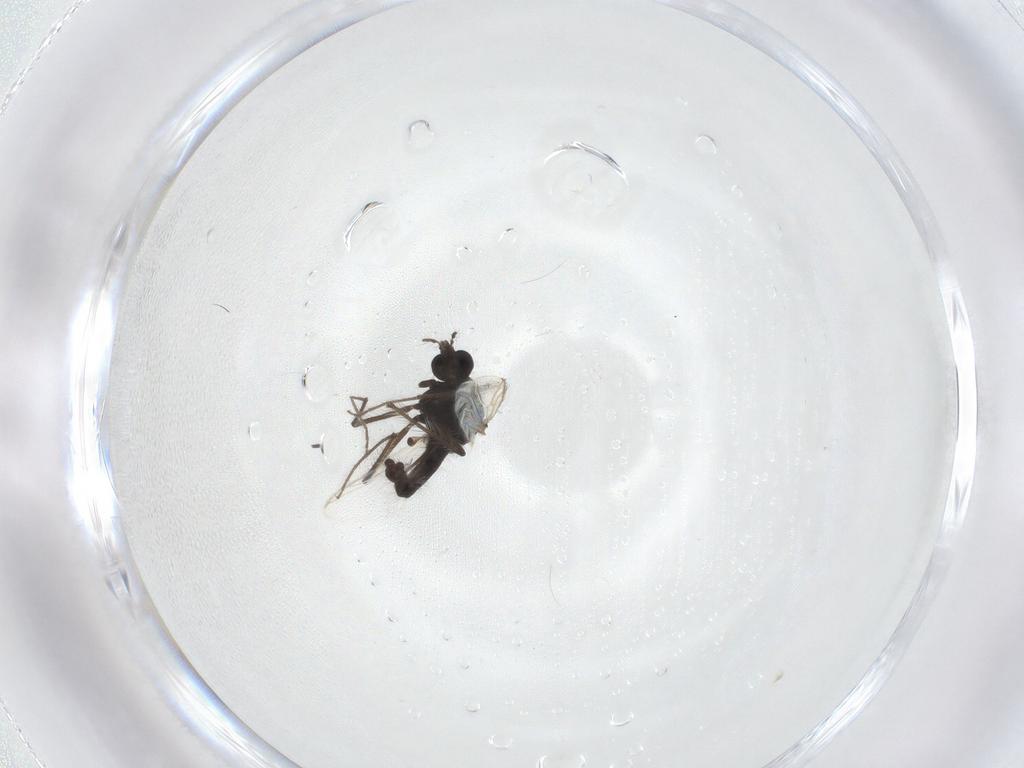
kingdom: Animalia
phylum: Arthropoda
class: Insecta
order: Diptera
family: Chironomidae
